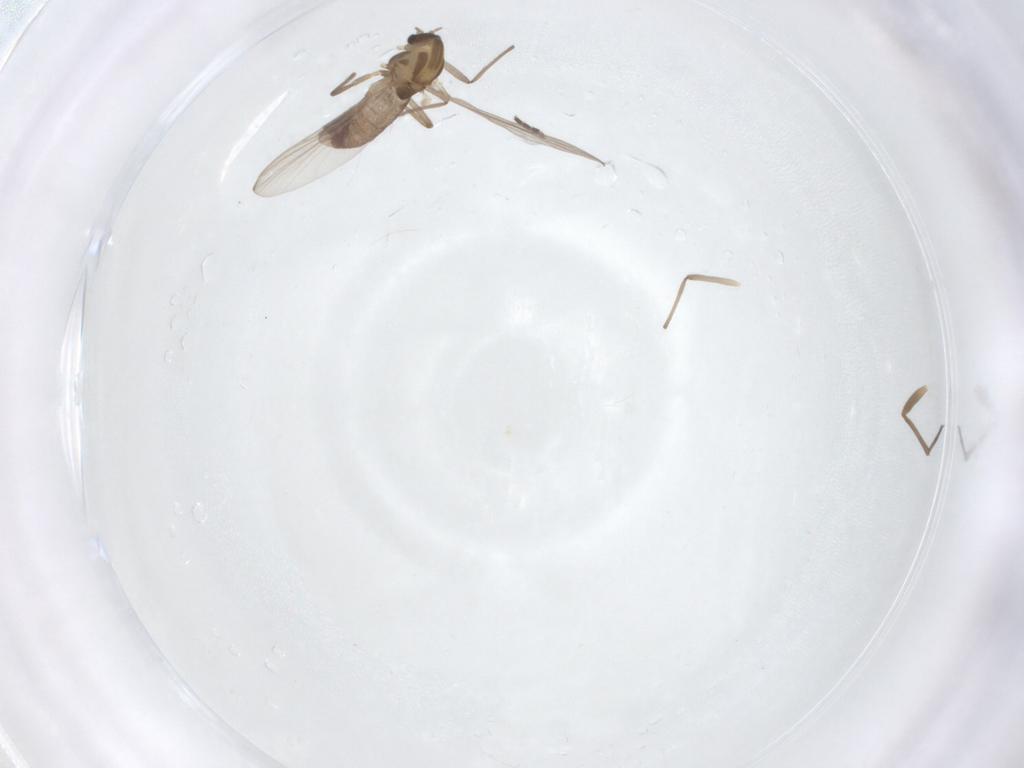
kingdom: Animalia
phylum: Arthropoda
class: Insecta
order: Diptera
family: Chironomidae
